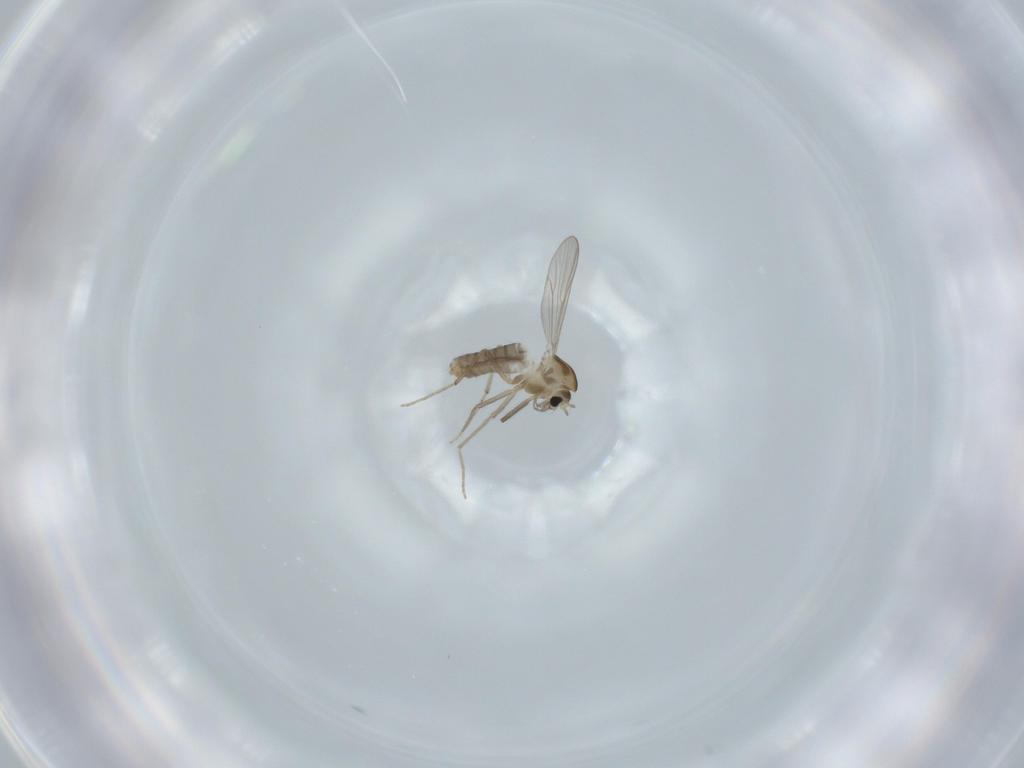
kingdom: Animalia
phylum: Arthropoda
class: Insecta
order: Diptera
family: Chironomidae
